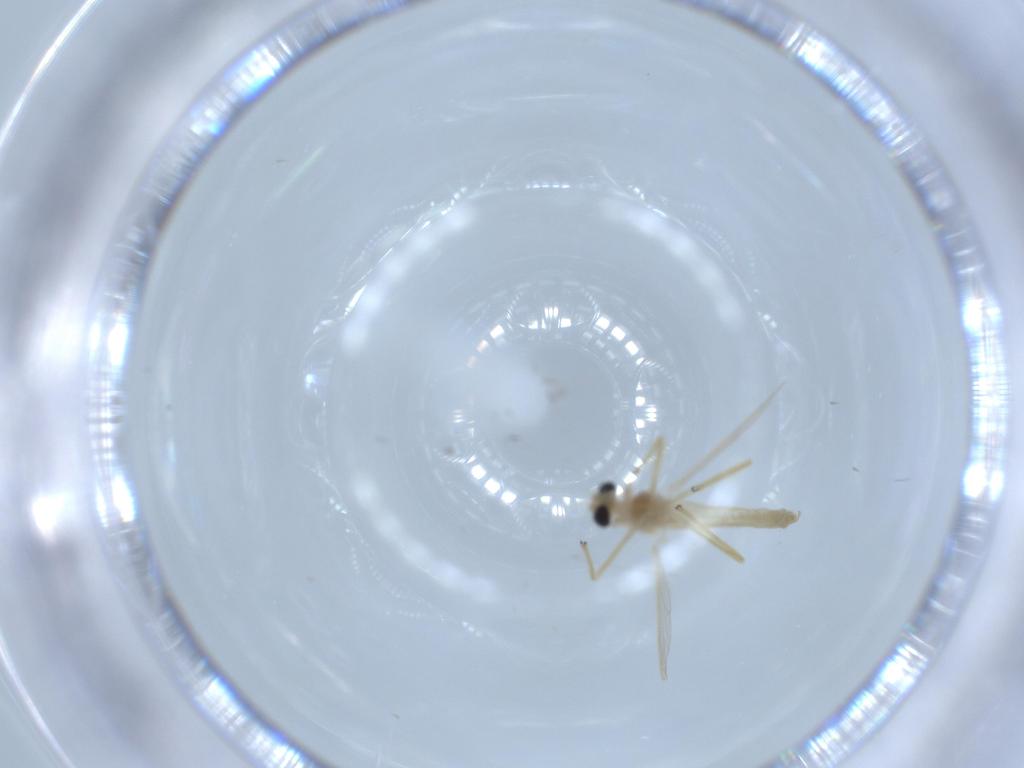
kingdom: Animalia
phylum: Arthropoda
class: Insecta
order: Diptera
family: Chironomidae
